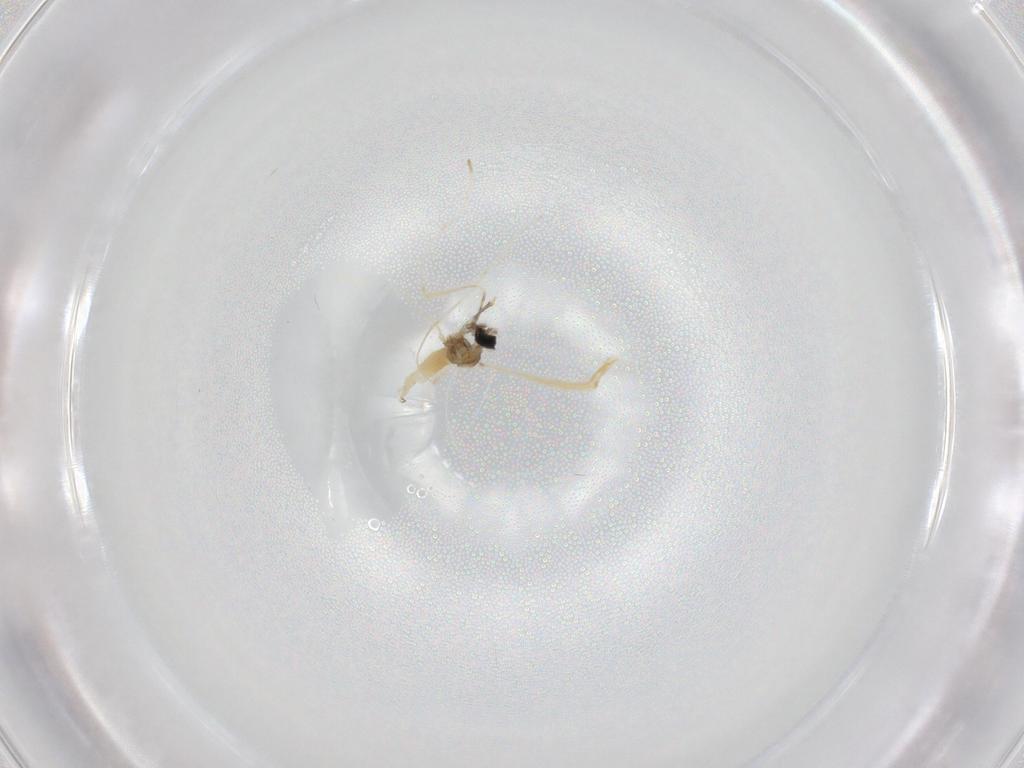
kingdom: Animalia
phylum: Arthropoda
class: Insecta
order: Diptera
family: Cecidomyiidae
